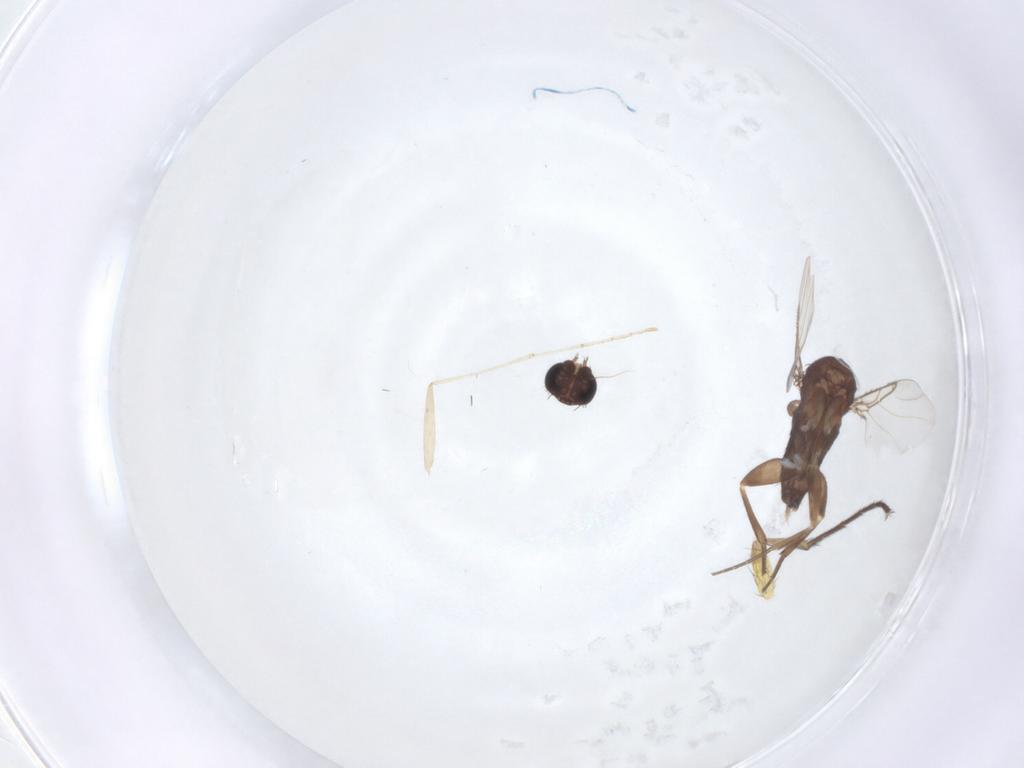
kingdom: Animalia
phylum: Arthropoda
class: Insecta
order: Diptera
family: Phoridae
